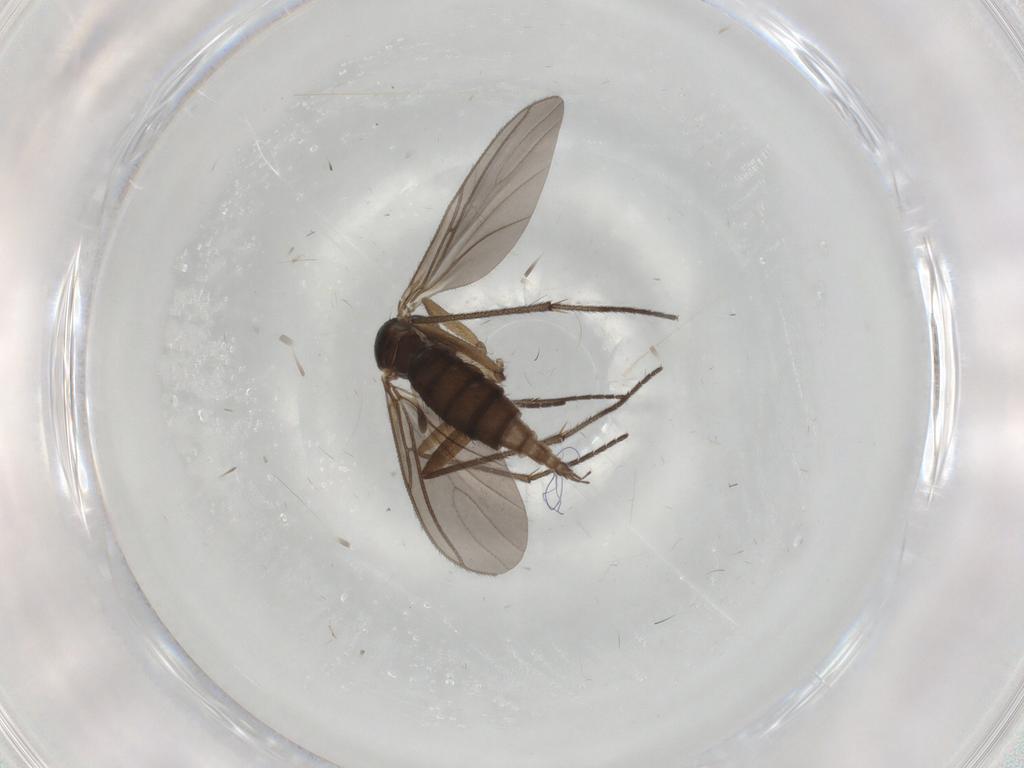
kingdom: Animalia
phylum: Arthropoda
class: Insecta
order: Diptera
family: Sciaridae
